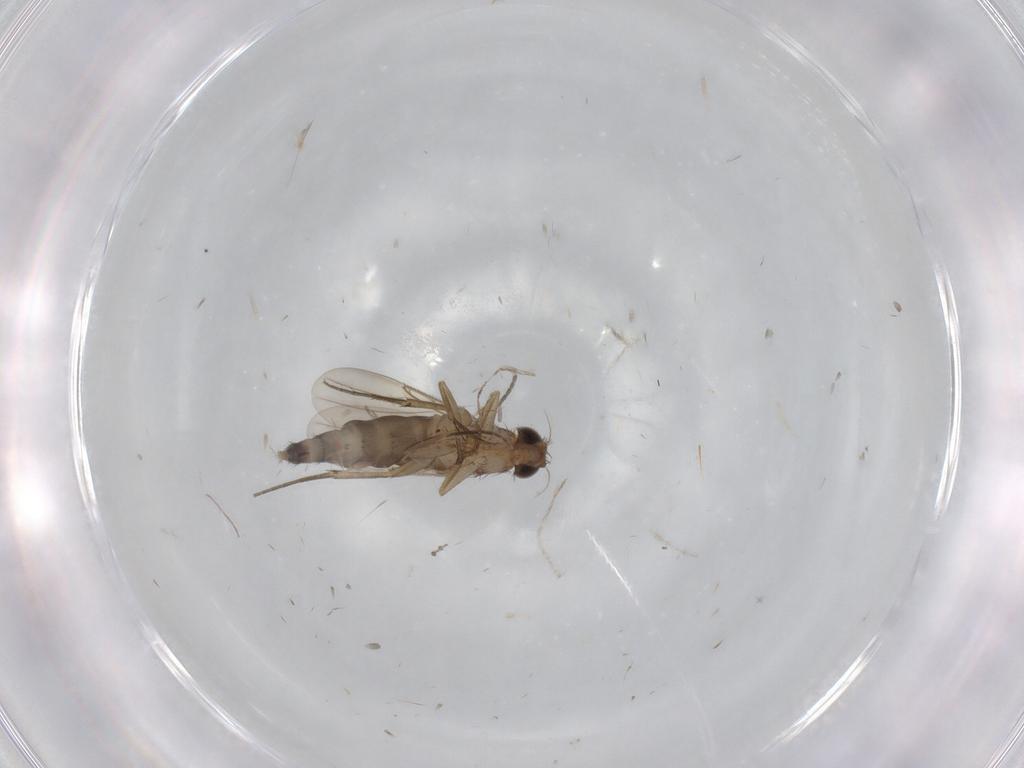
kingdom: Animalia
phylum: Arthropoda
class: Insecta
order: Diptera
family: Phoridae
